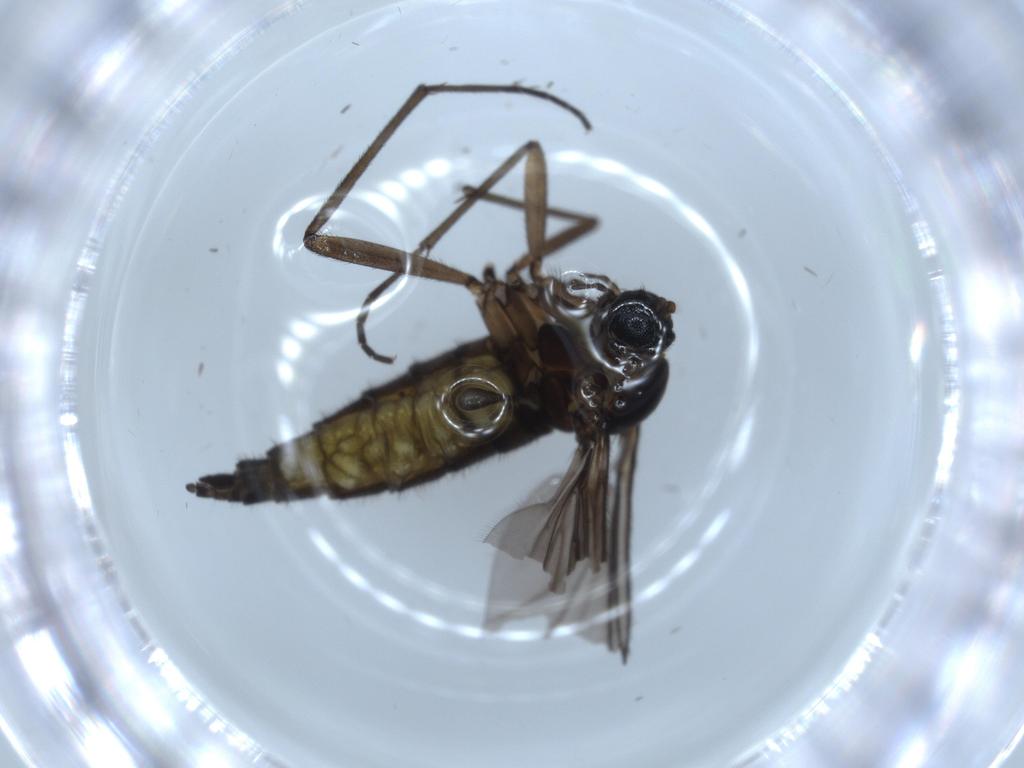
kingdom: Animalia
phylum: Arthropoda
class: Insecta
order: Diptera
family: Sciaridae
